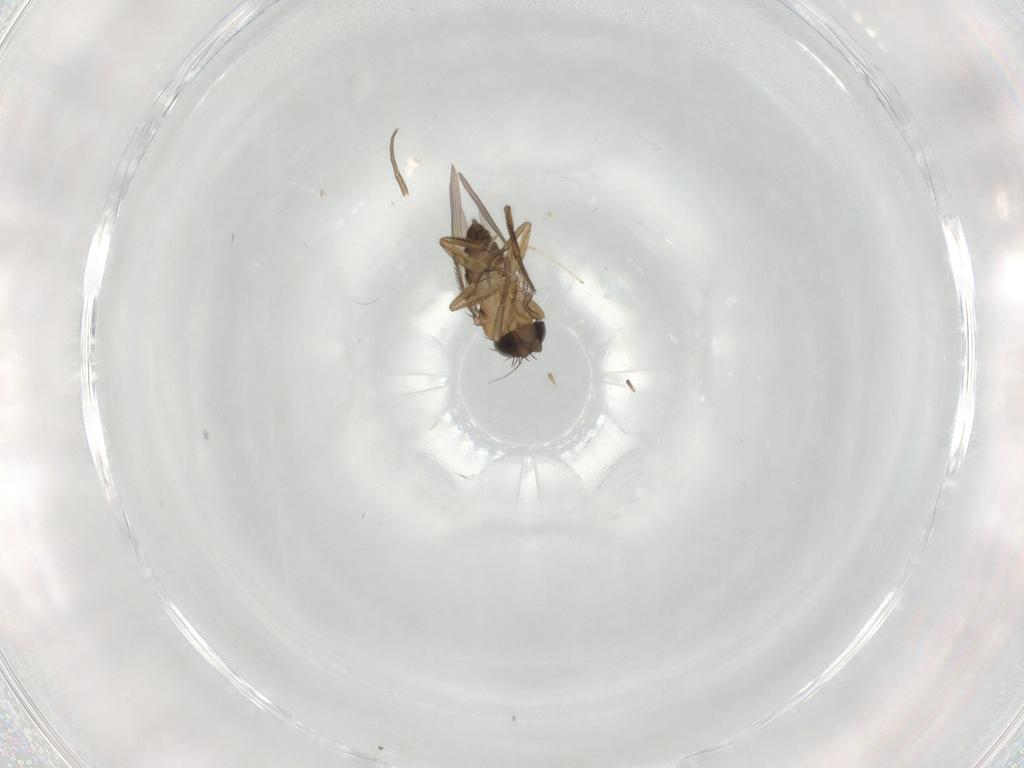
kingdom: Animalia
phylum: Arthropoda
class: Insecta
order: Diptera
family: Phoridae
